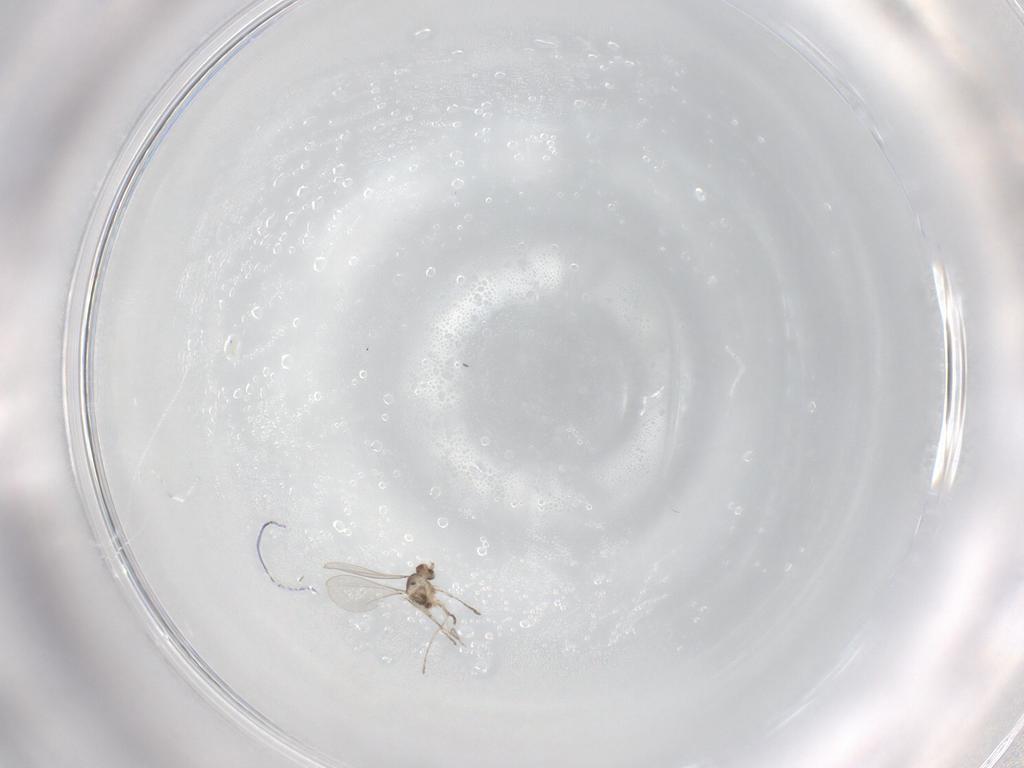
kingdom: Animalia
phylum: Arthropoda
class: Insecta
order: Diptera
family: Cecidomyiidae
